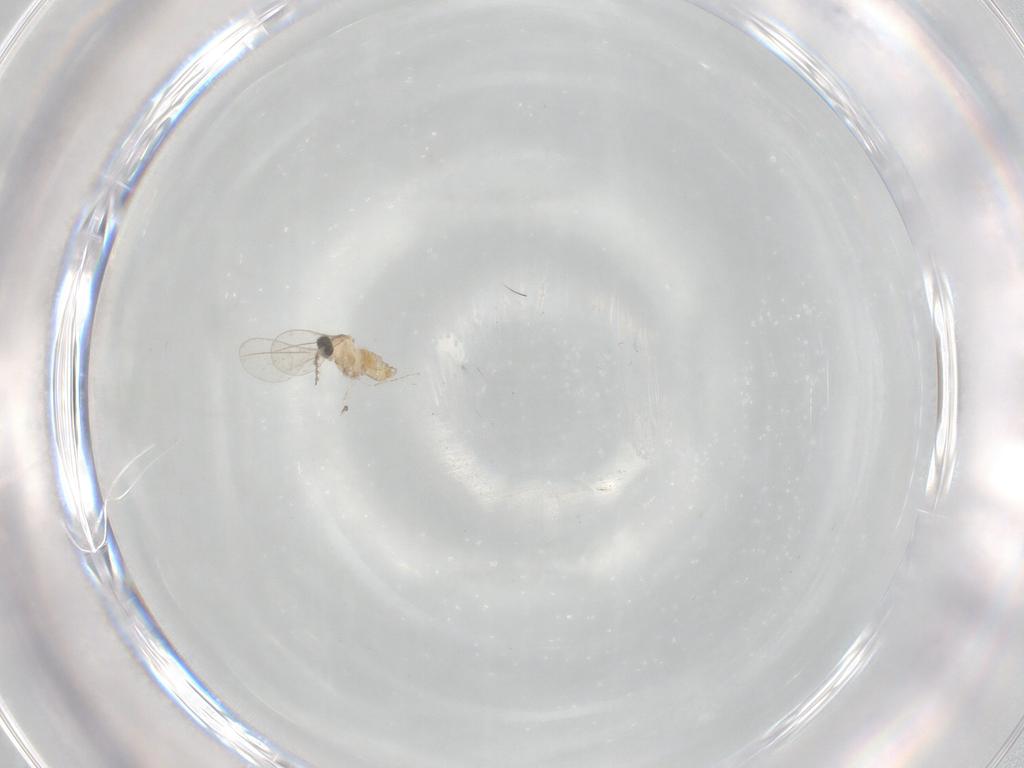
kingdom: Animalia
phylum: Arthropoda
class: Insecta
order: Diptera
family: Cecidomyiidae
